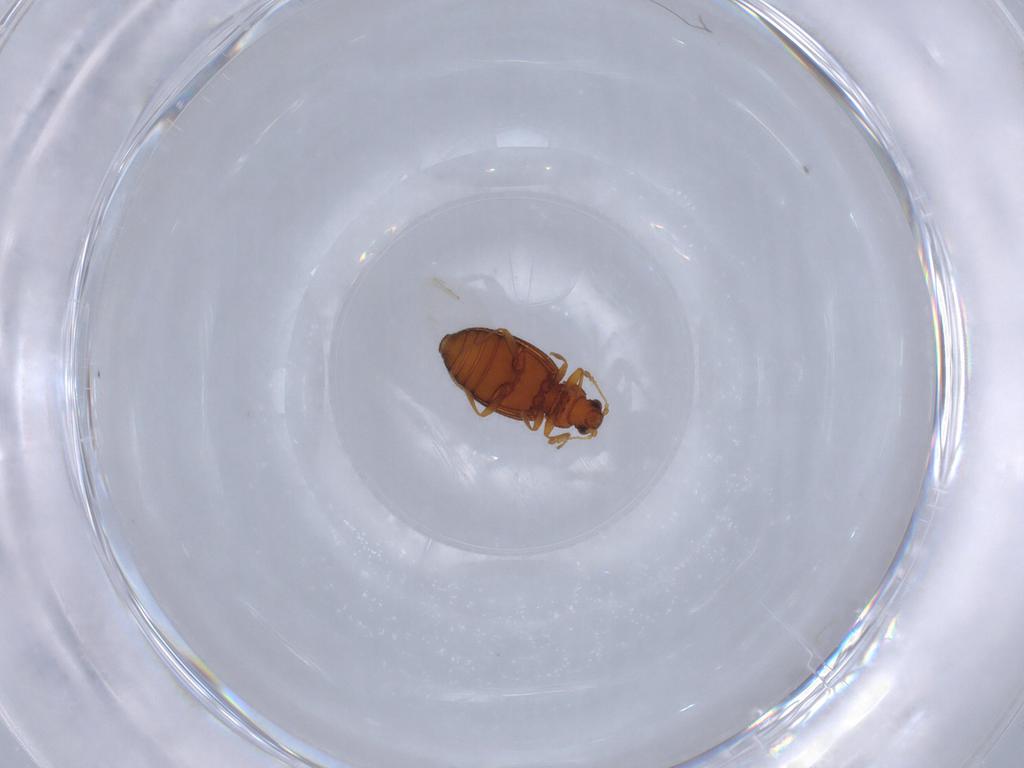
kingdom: Animalia
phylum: Arthropoda
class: Insecta
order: Coleoptera
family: Latridiidae
